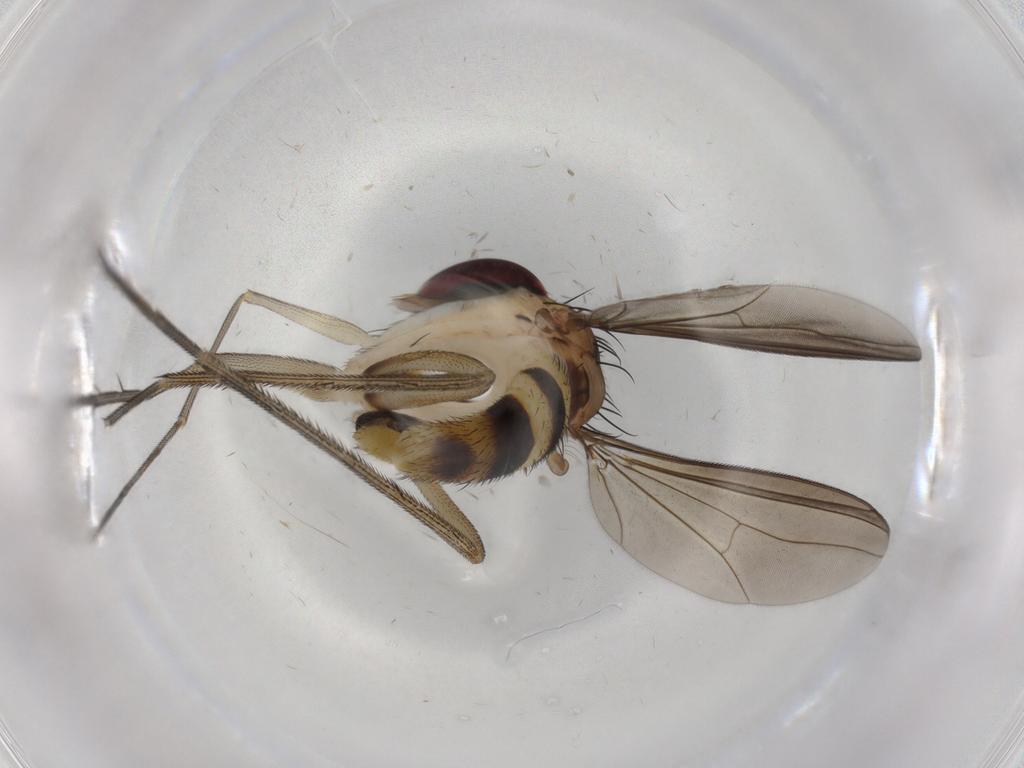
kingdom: Animalia
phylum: Arthropoda
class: Insecta
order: Diptera
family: Dolichopodidae
